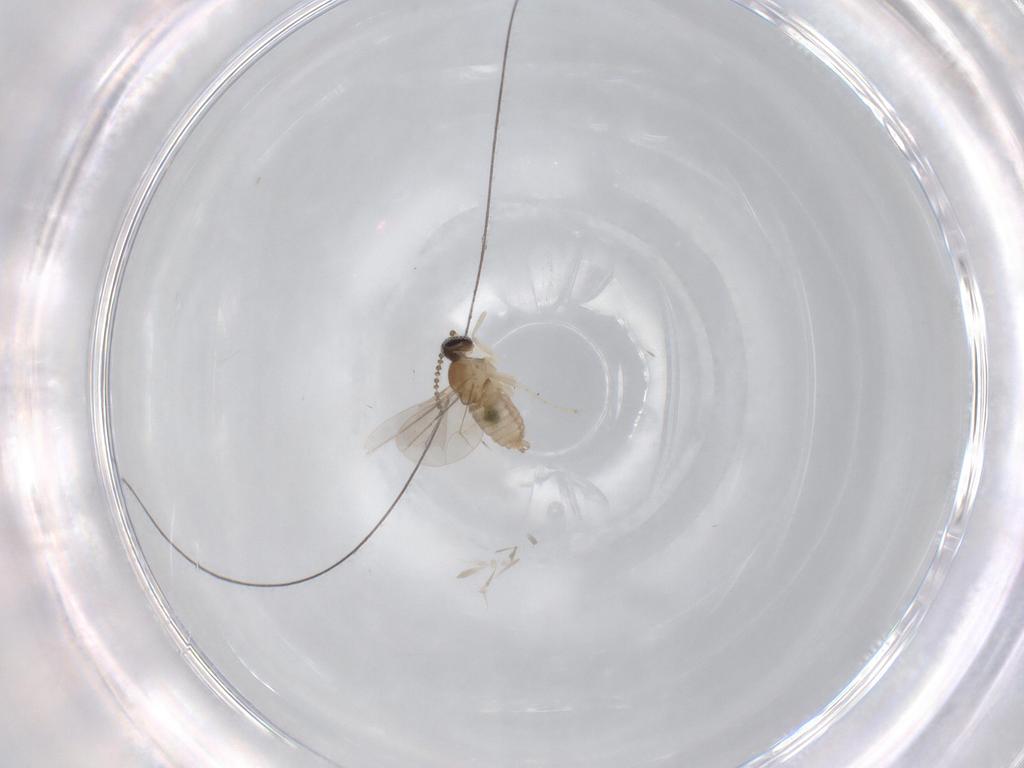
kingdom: Animalia
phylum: Arthropoda
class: Insecta
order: Diptera
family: Cecidomyiidae
